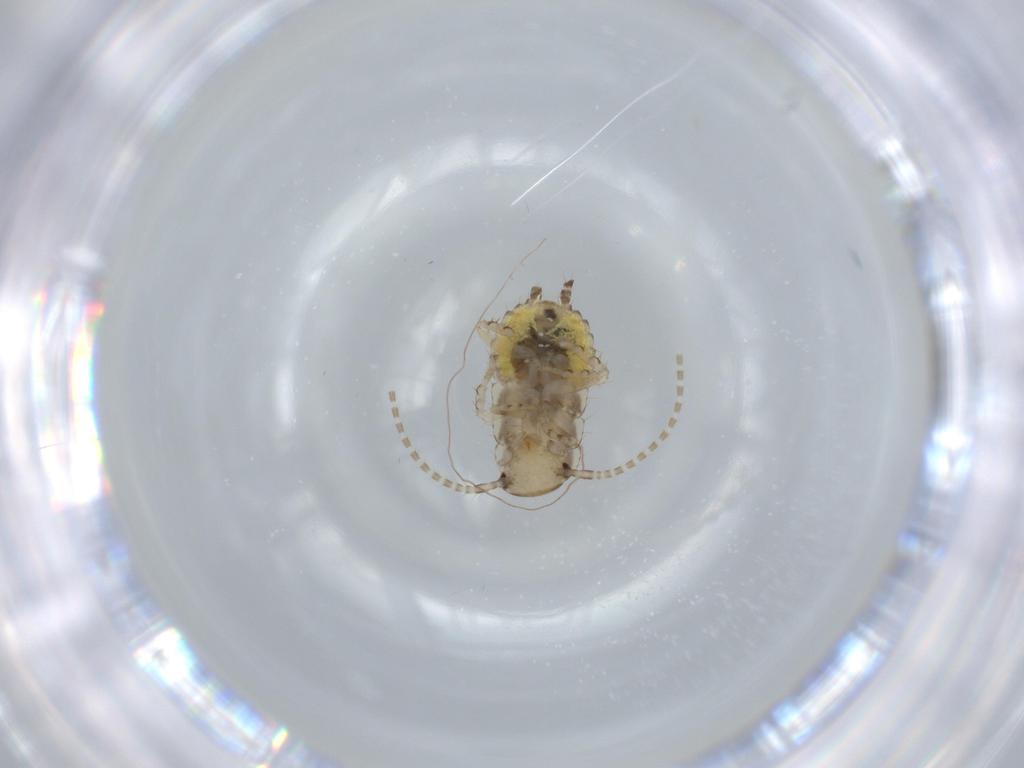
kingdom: Animalia
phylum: Arthropoda
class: Insecta
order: Blattodea
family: Ectobiidae
